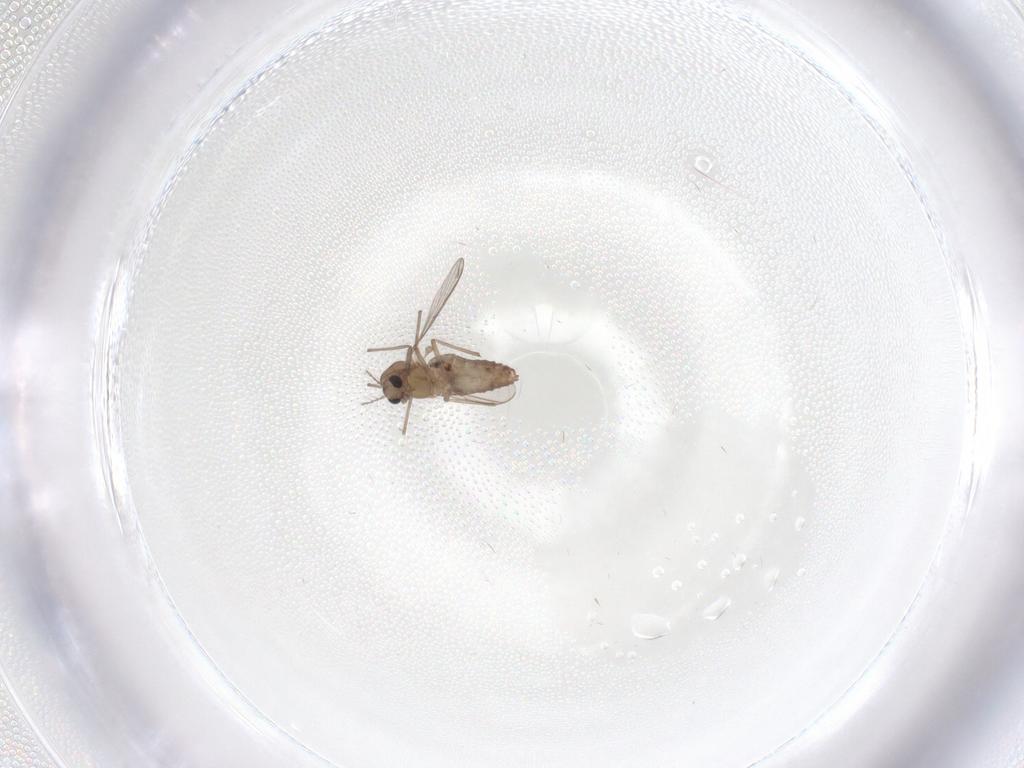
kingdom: Animalia
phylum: Arthropoda
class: Insecta
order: Diptera
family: Chironomidae
